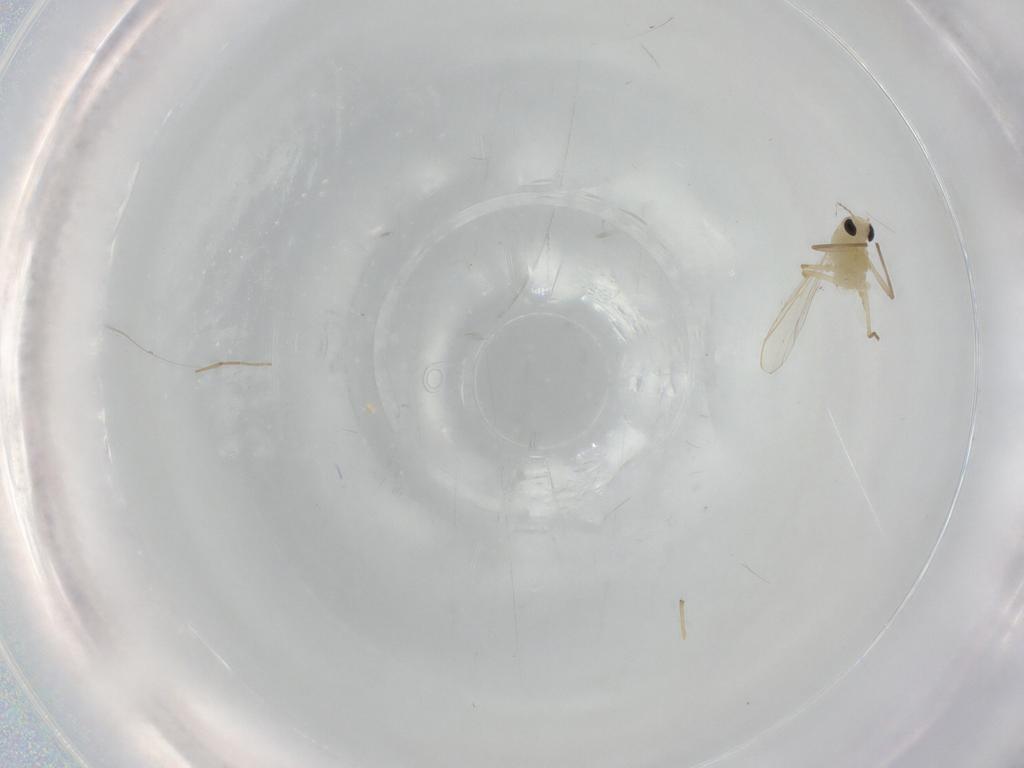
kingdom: Animalia
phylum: Arthropoda
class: Insecta
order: Diptera
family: Chironomidae
